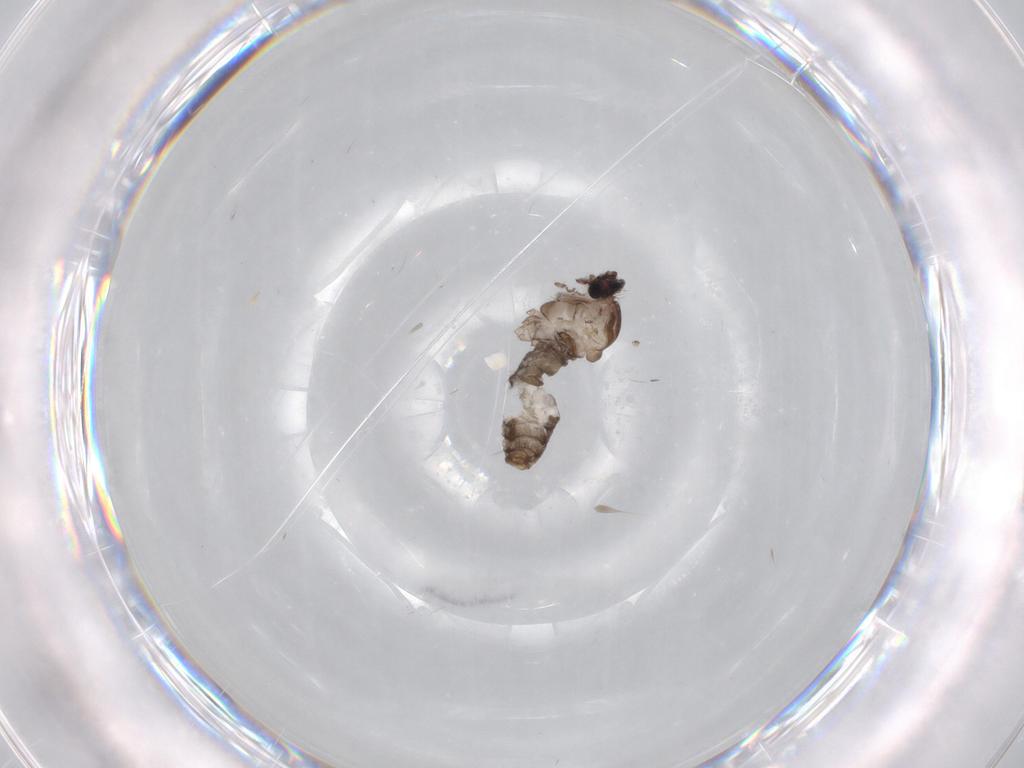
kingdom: Animalia
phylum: Arthropoda
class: Insecta
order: Diptera
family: Cecidomyiidae
